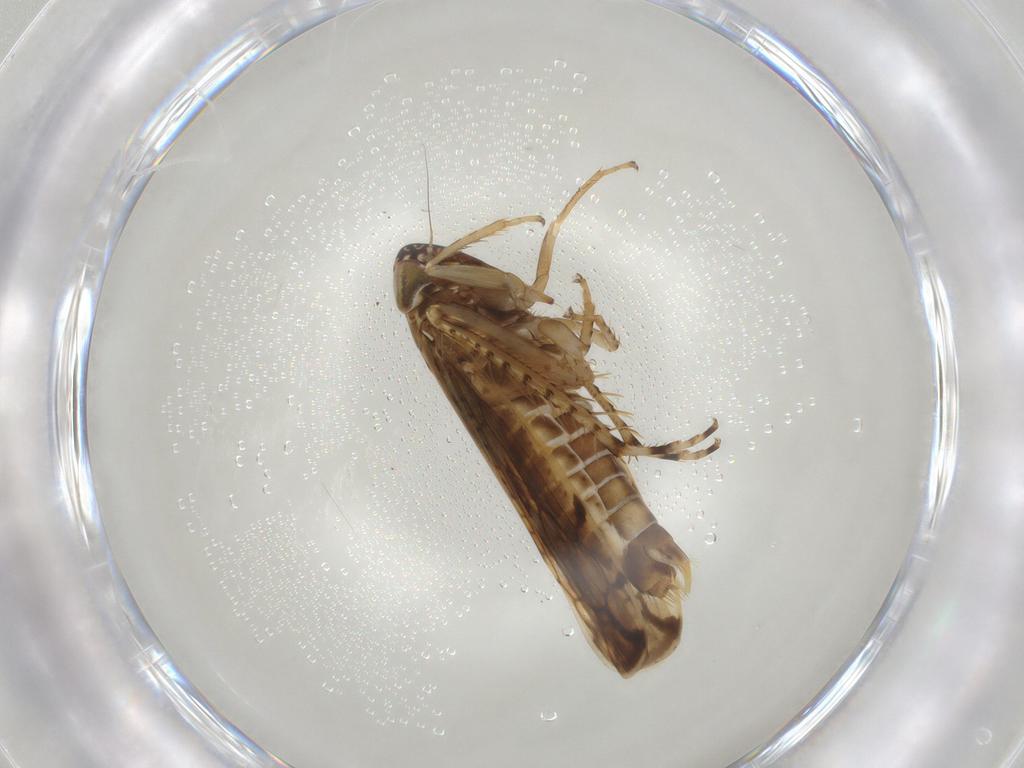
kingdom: Animalia
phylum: Arthropoda
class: Insecta
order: Hemiptera
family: Cicadellidae
